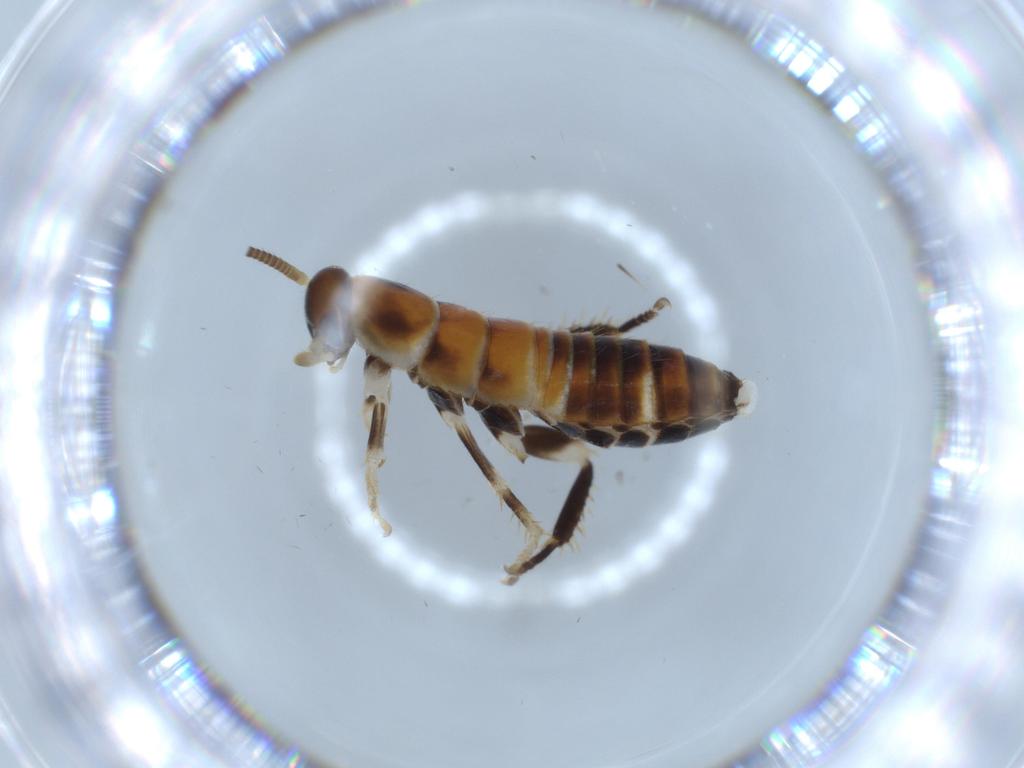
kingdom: Animalia
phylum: Arthropoda
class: Insecta
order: Blattodea
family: Ectobiidae
